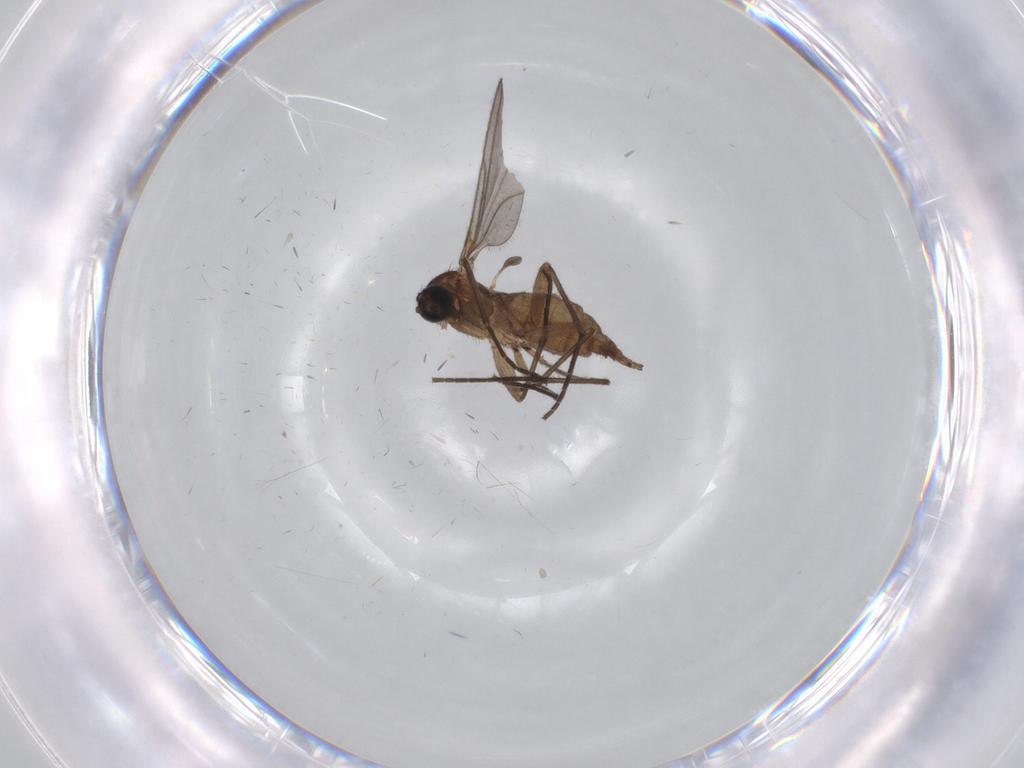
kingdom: Animalia
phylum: Arthropoda
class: Insecta
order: Diptera
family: Sciaridae
